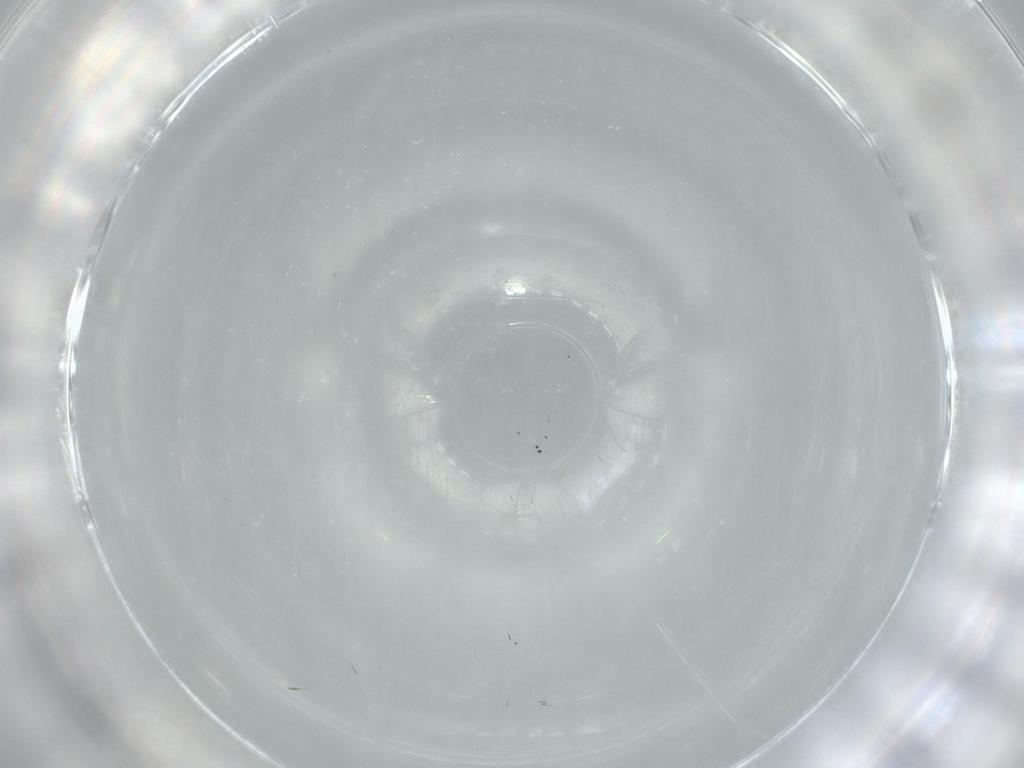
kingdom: Animalia
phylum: Arthropoda
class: Insecta
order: Diptera
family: Chironomidae
